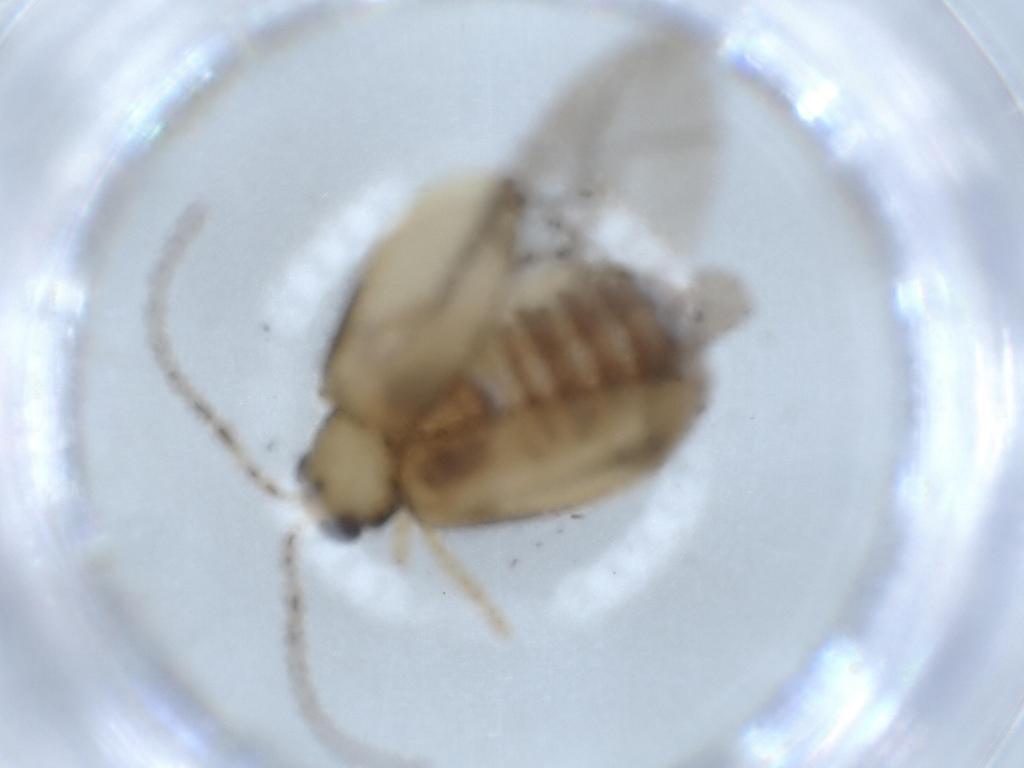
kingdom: Animalia
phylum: Arthropoda
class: Insecta
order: Coleoptera
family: Chrysomelidae
